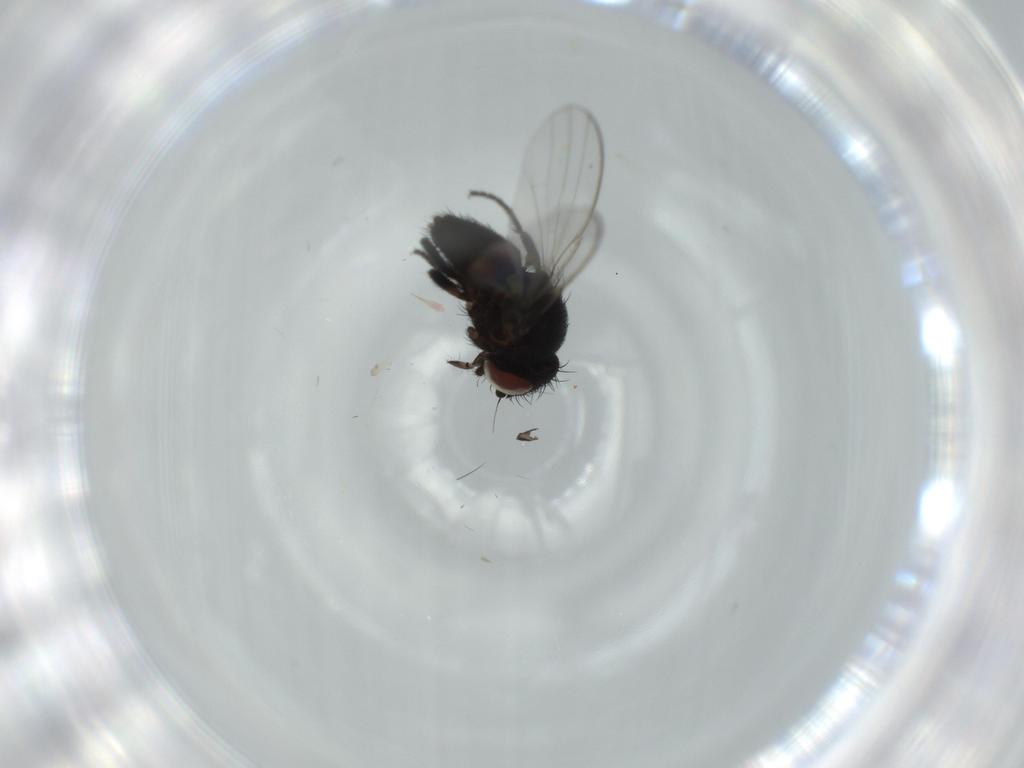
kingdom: Animalia
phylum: Arthropoda
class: Insecta
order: Diptera
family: Milichiidae
